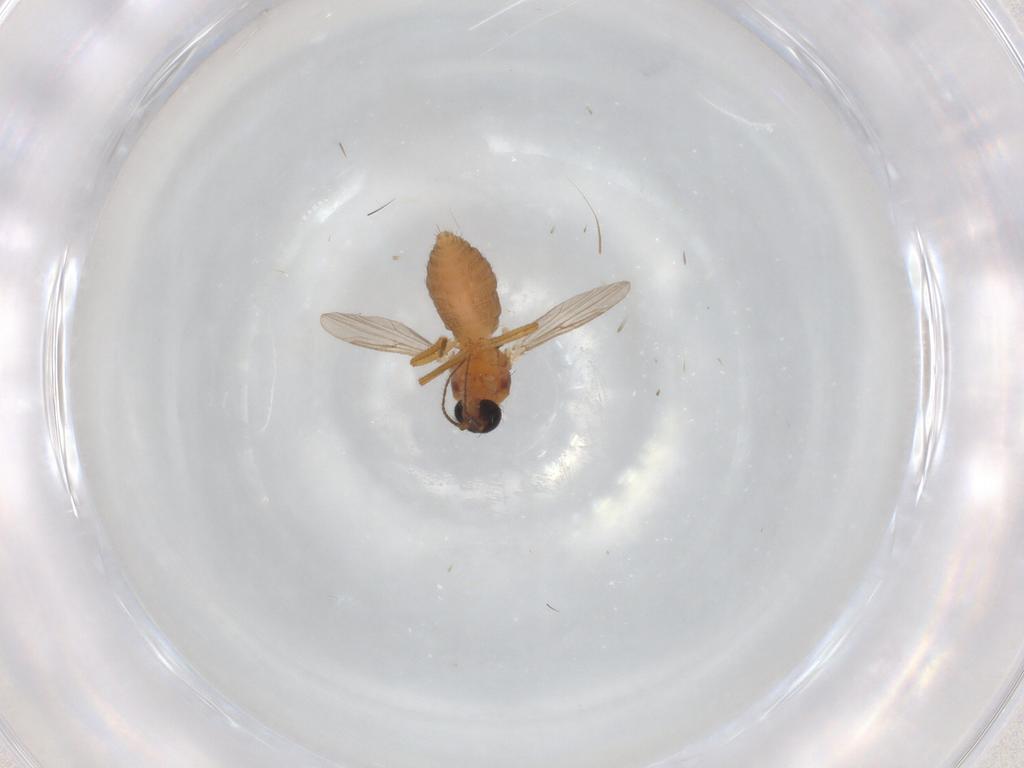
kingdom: Animalia
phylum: Arthropoda
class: Insecta
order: Diptera
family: Ceratopogonidae
